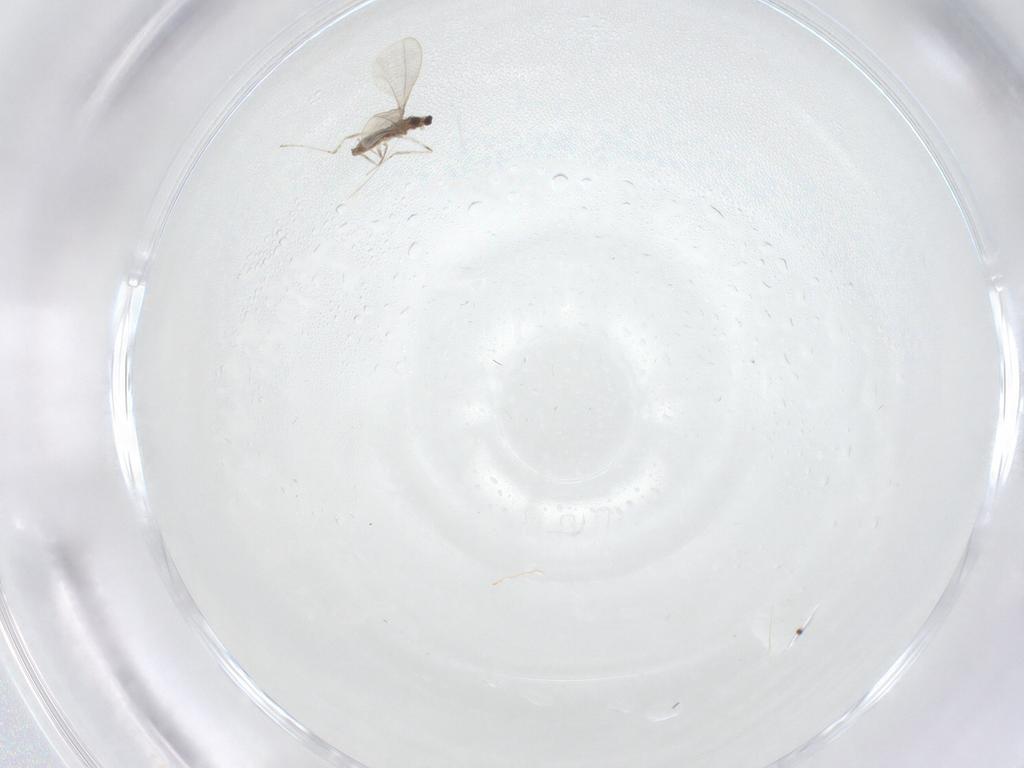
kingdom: Animalia
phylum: Arthropoda
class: Insecta
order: Diptera
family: Cecidomyiidae
